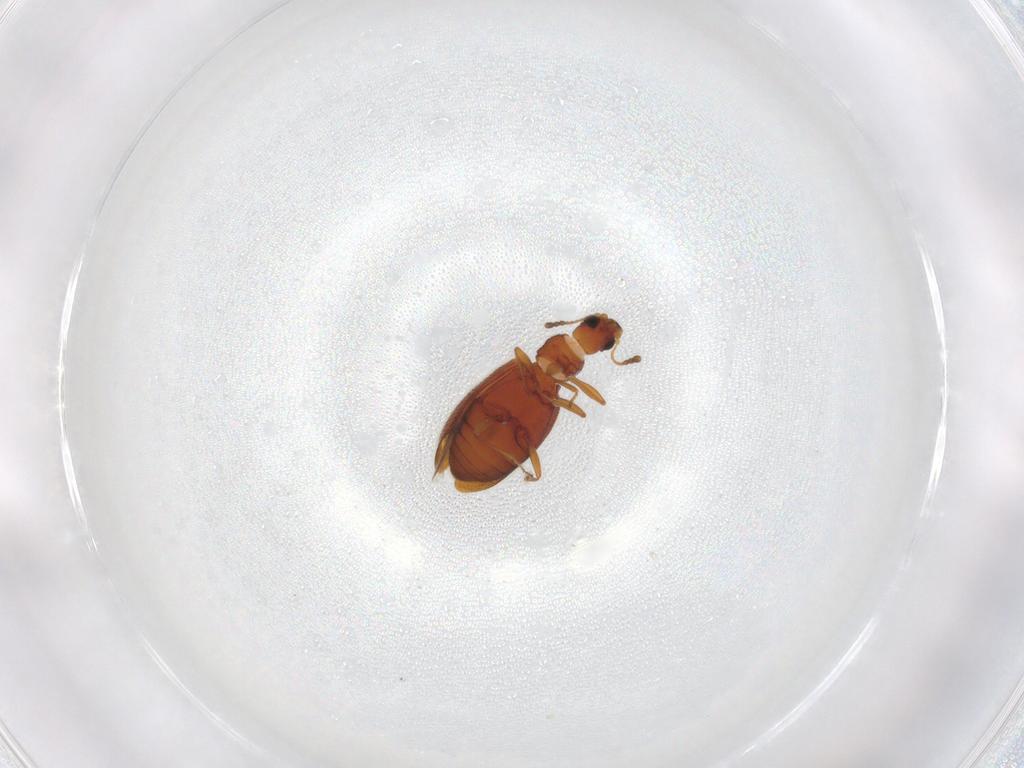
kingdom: Animalia
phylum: Arthropoda
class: Insecta
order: Coleoptera
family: Latridiidae
